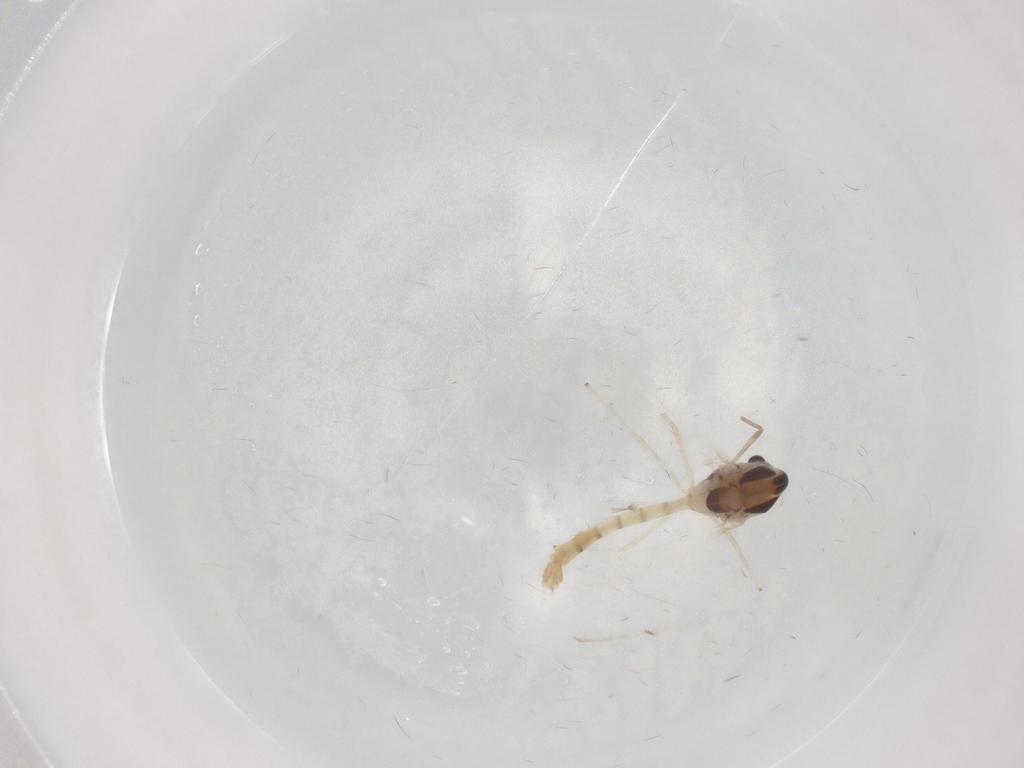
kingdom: Animalia
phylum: Arthropoda
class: Insecta
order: Diptera
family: Chironomidae
